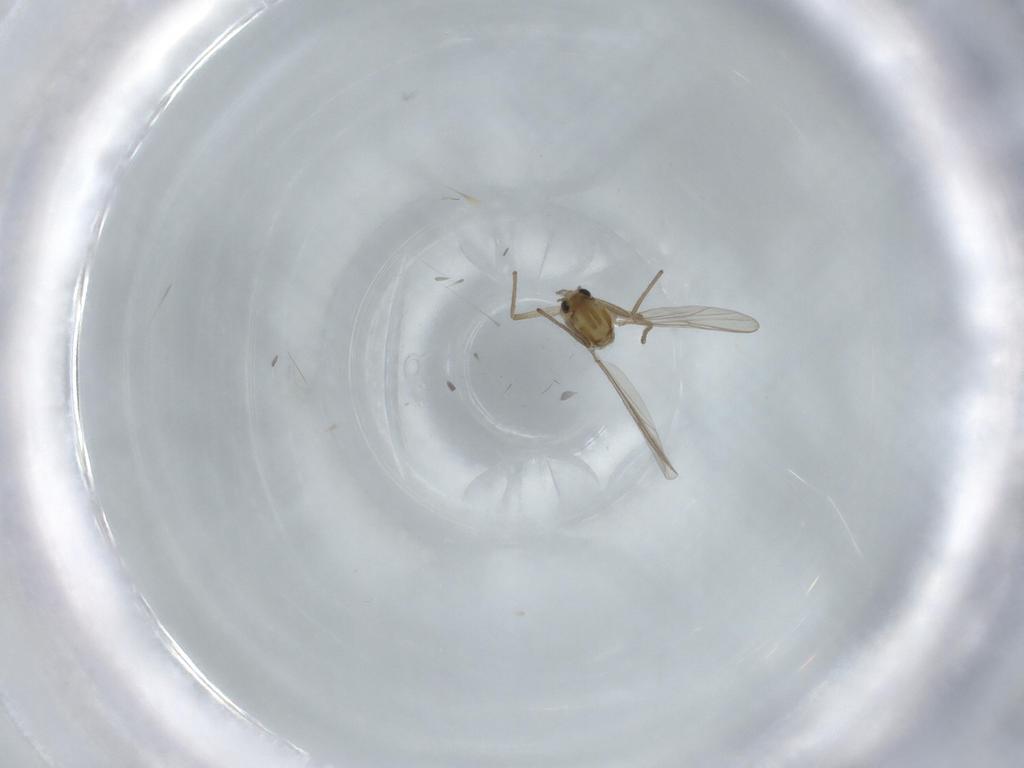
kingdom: Animalia
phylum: Arthropoda
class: Insecta
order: Diptera
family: Chironomidae
